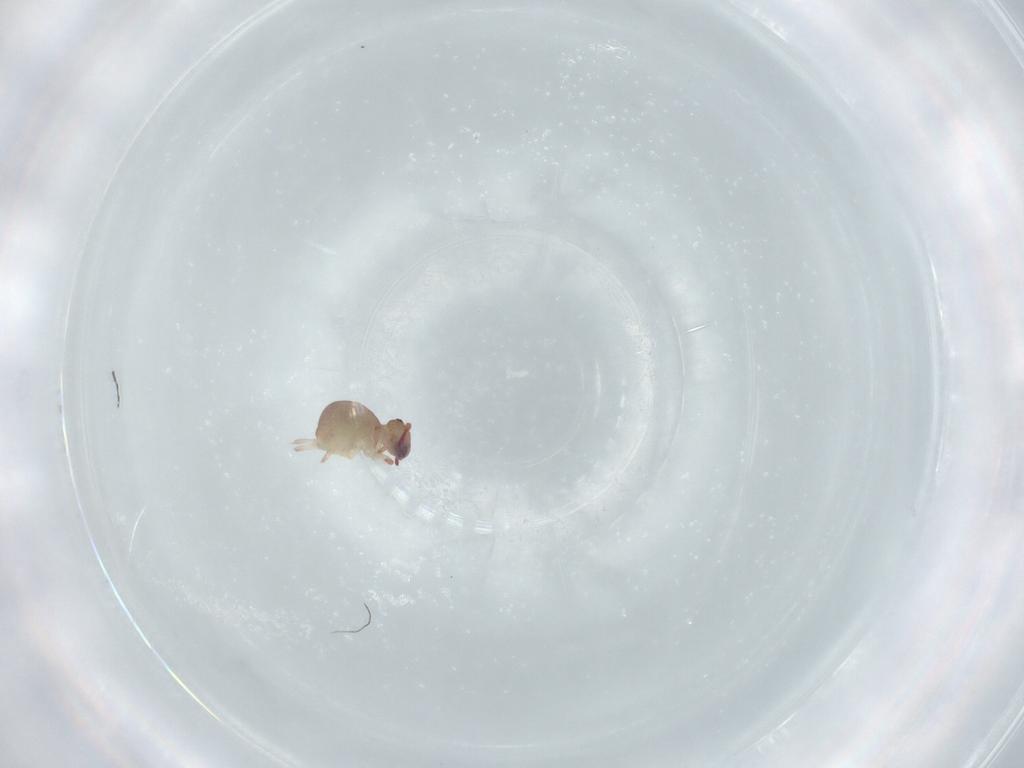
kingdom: Animalia
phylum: Arthropoda
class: Collembola
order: Symphypleona
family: Sminthurididae
